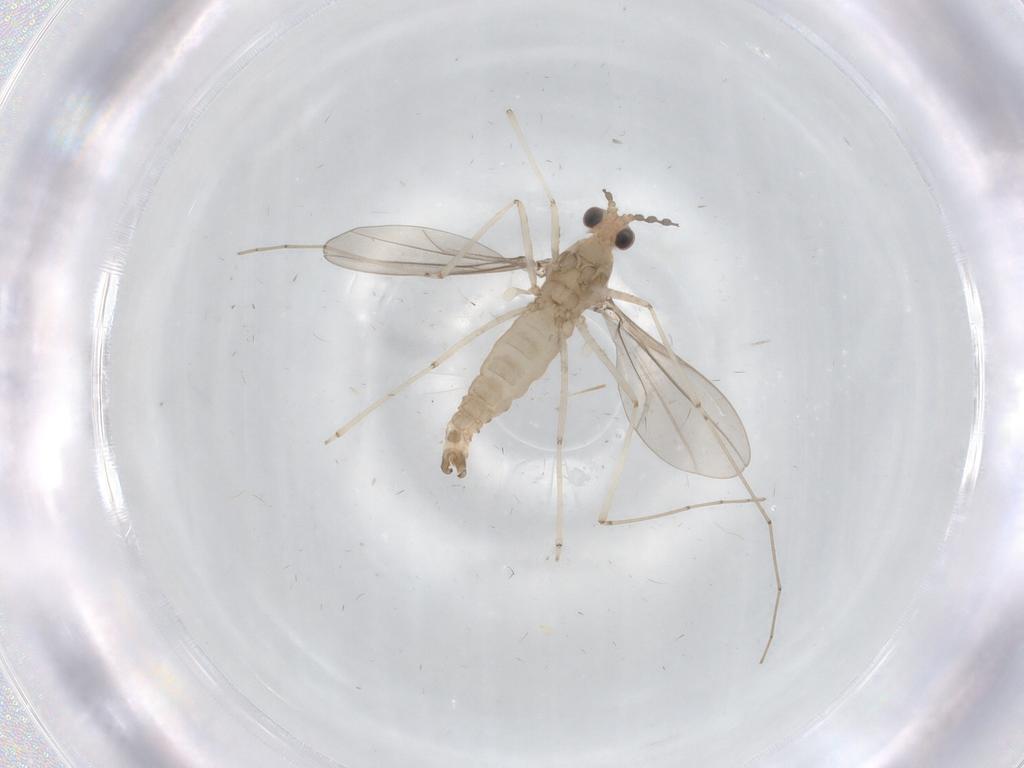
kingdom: Animalia
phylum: Arthropoda
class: Insecta
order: Diptera
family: Cecidomyiidae
